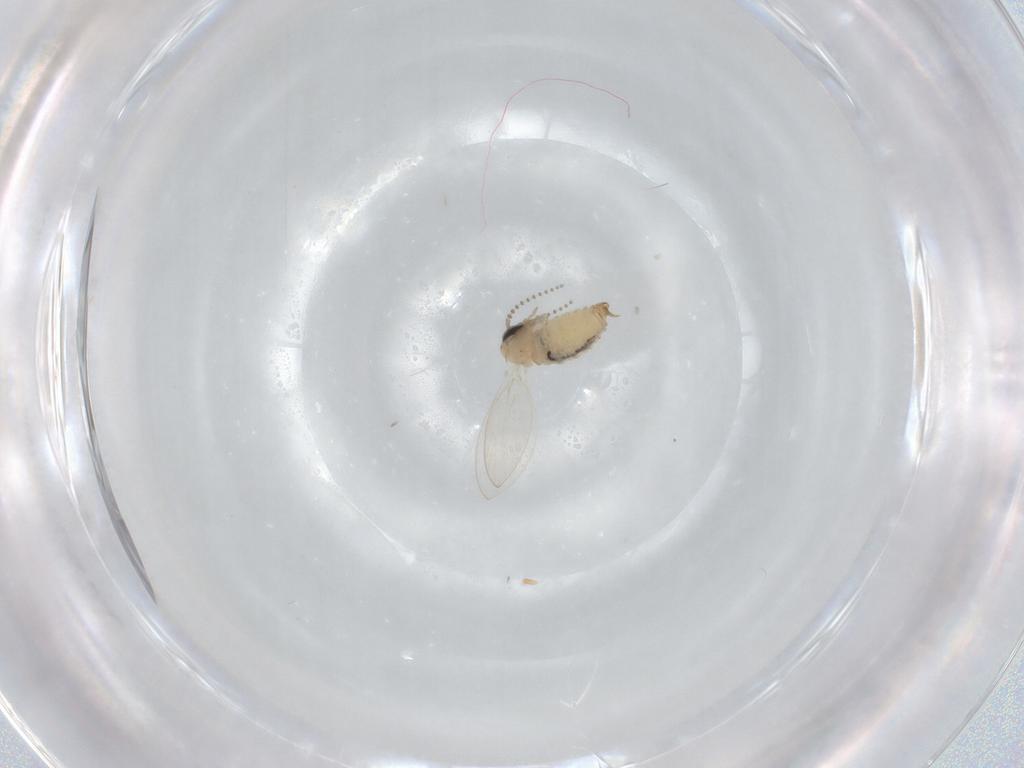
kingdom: Animalia
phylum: Arthropoda
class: Insecta
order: Diptera
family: Psychodidae
